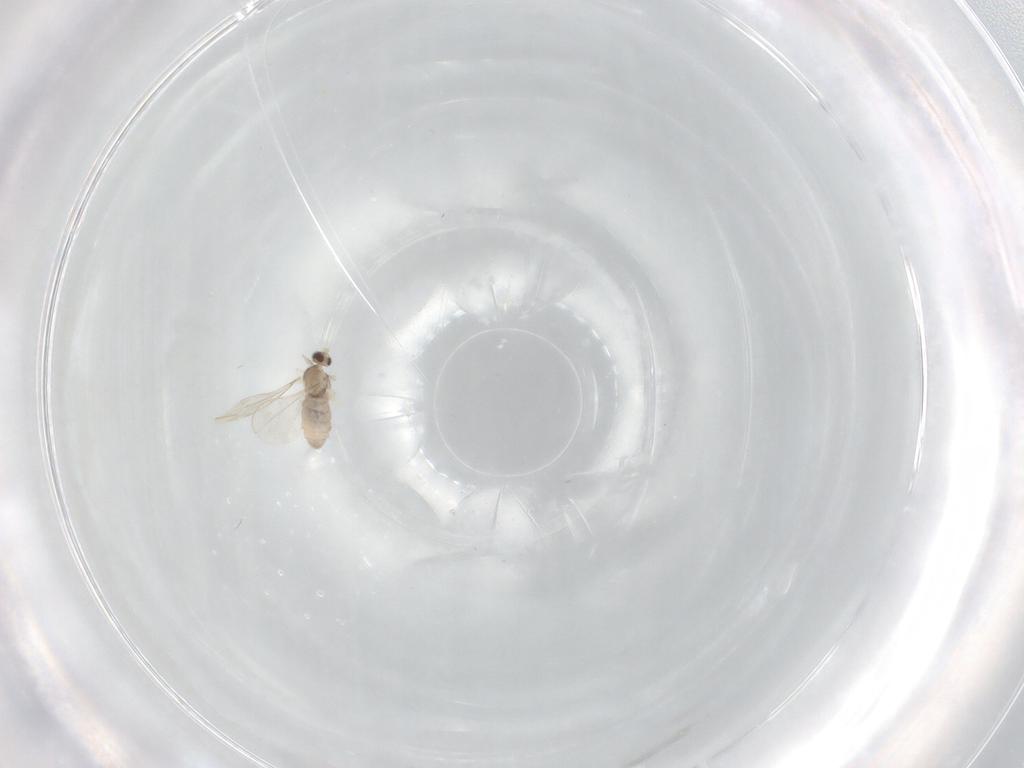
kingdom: Animalia
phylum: Arthropoda
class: Insecta
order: Diptera
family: Cecidomyiidae
